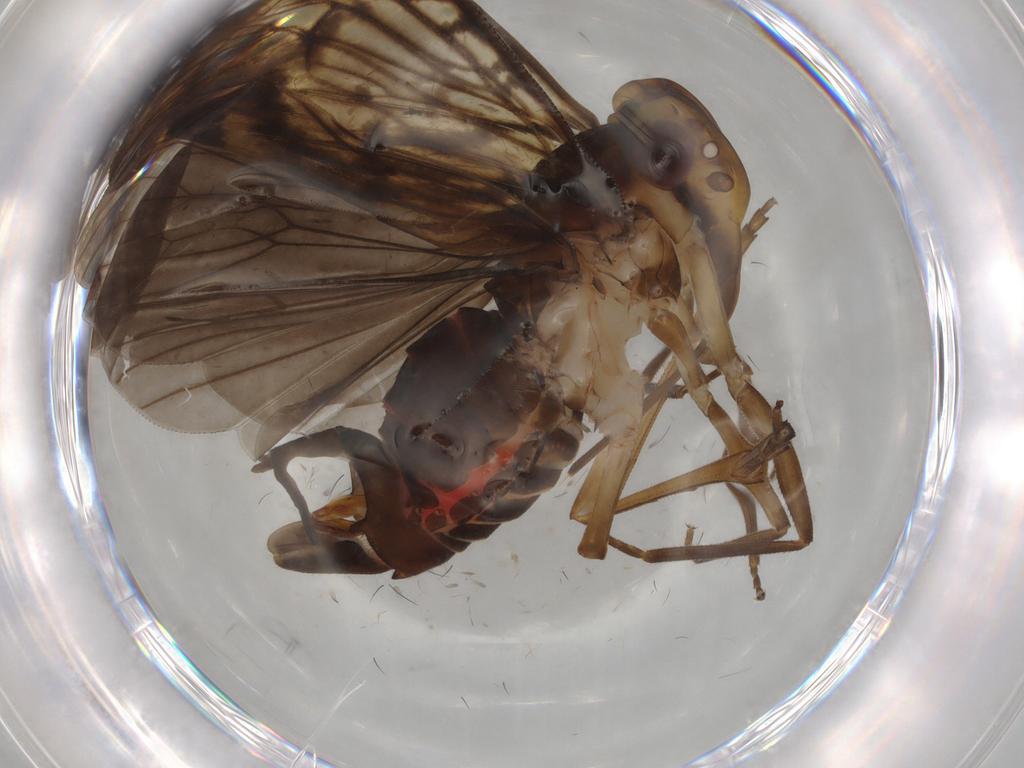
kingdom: Animalia
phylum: Arthropoda
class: Insecta
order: Hemiptera
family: Cixiidae
